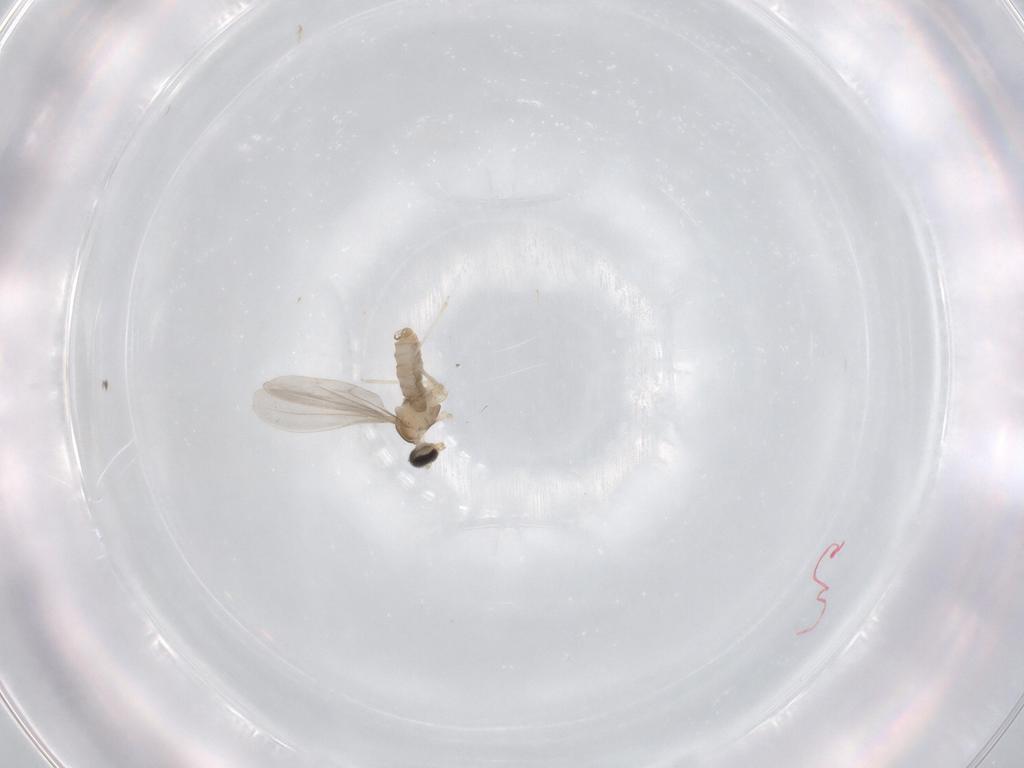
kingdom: Animalia
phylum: Arthropoda
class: Insecta
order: Diptera
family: Cecidomyiidae
